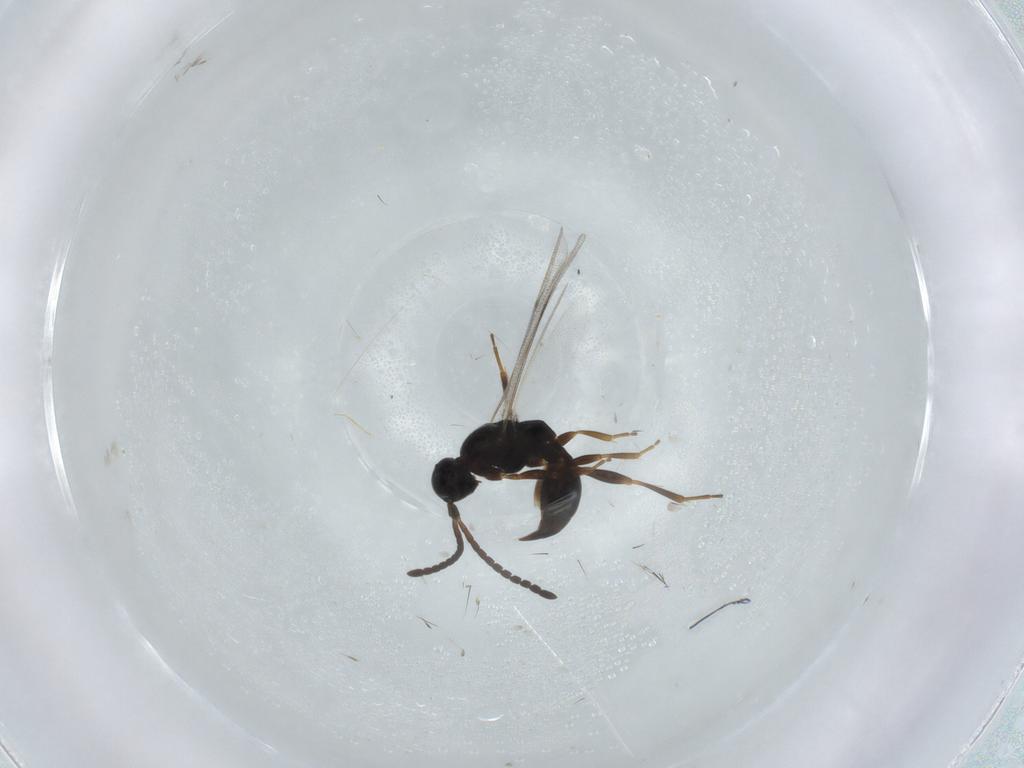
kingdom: Animalia
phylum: Arthropoda
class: Insecta
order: Hymenoptera
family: Proctotrupidae
